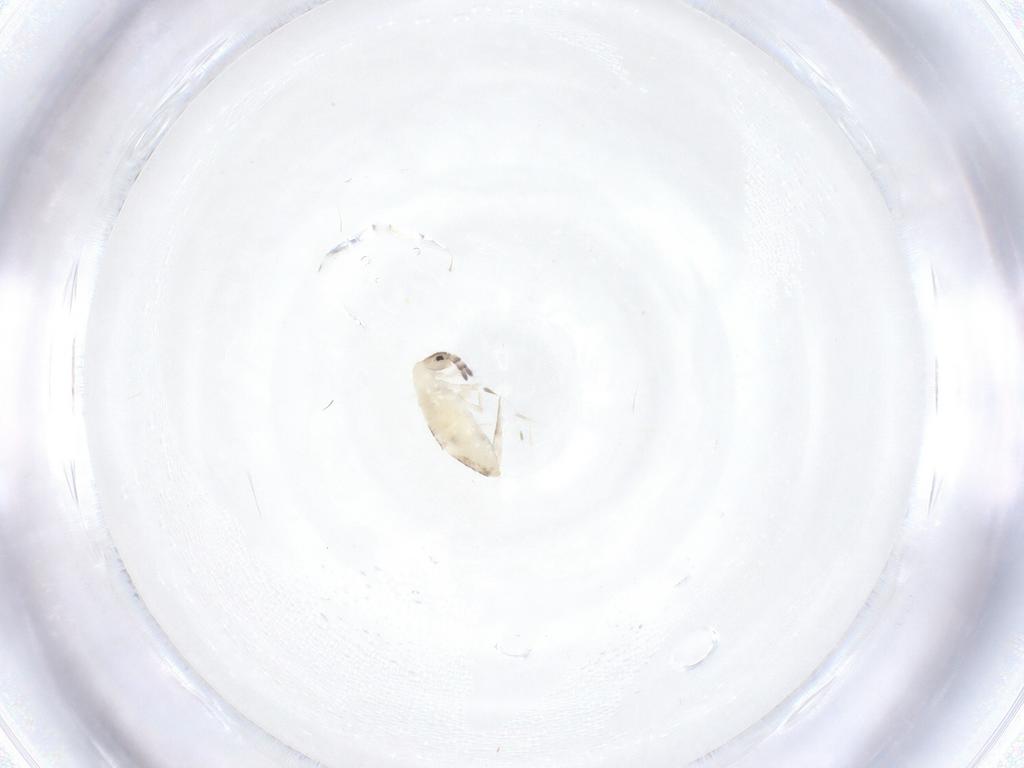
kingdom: Animalia
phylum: Arthropoda
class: Collembola
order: Entomobryomorpha
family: Entomobryidae
